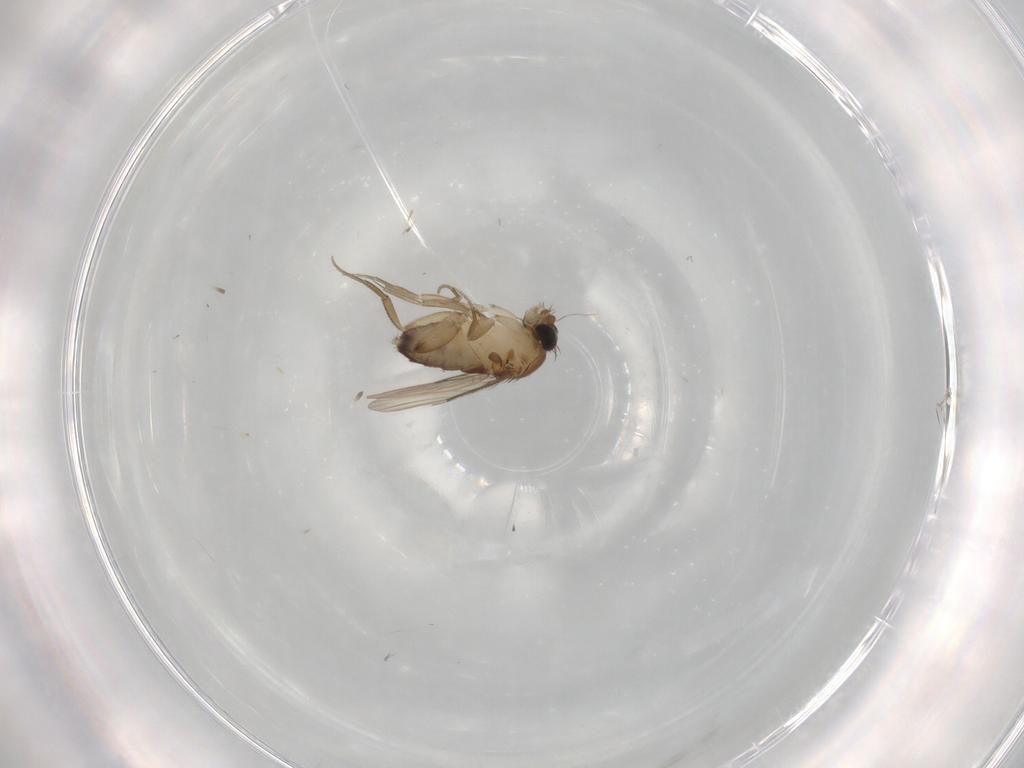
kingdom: Animalia
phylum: Arthropoda
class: Insecta
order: Diptera
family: Phoridae
